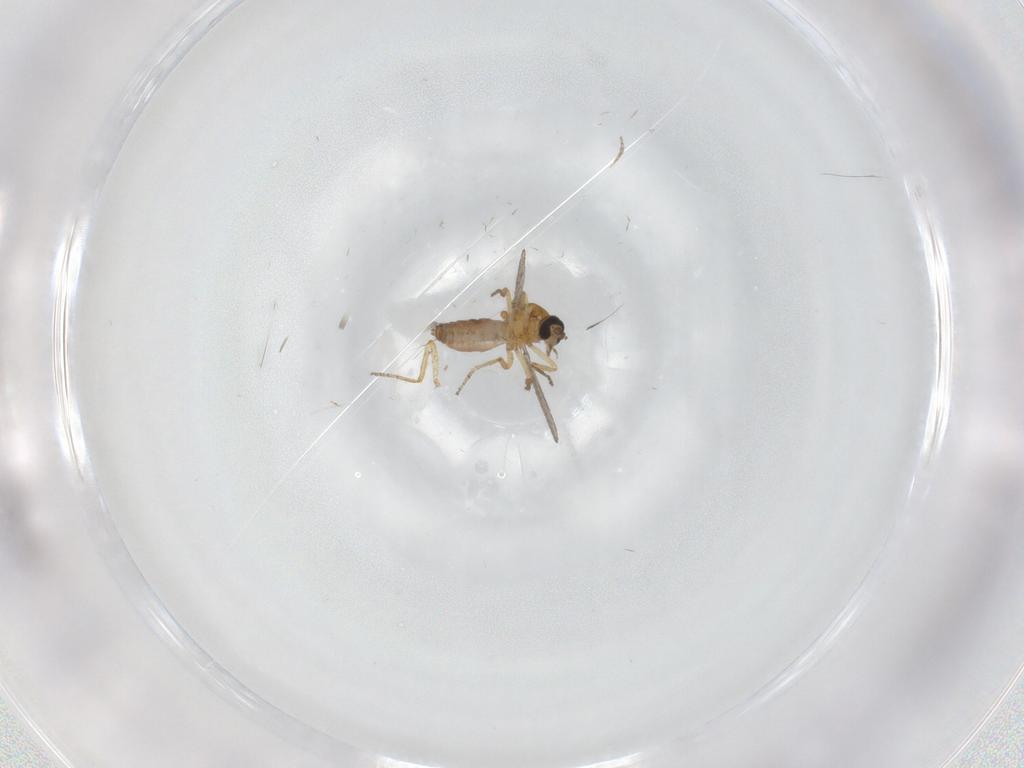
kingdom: Animalia
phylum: Arthropoda
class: Insecta
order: Diptera
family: Ceratopogonidae
